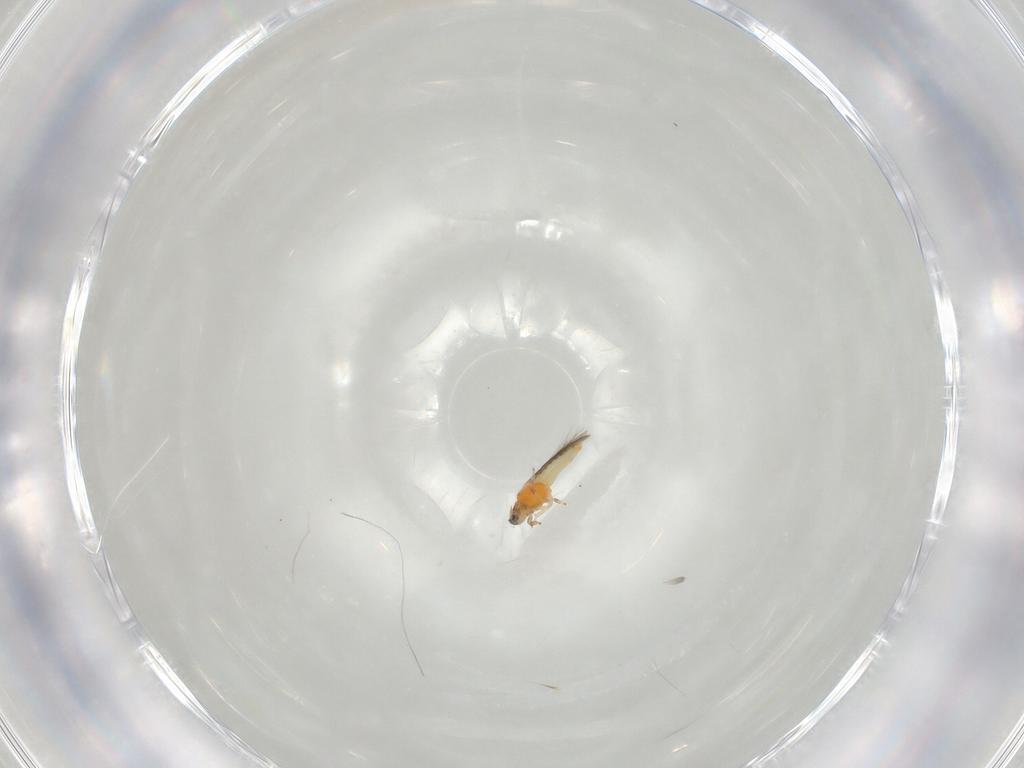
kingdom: Animalia
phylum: Arthropoda
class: Insecta
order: Thysanoptera
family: Thripidae
